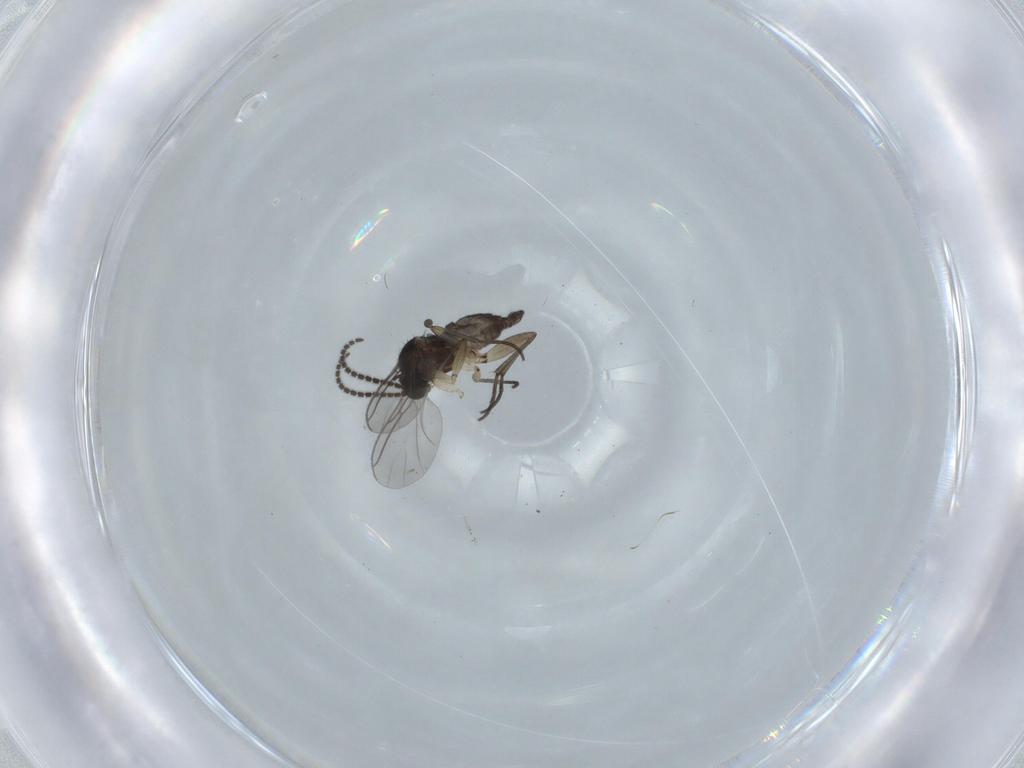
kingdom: Animalia
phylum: Arthropoda
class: Insecta
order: Diptera
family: Sciaridae
